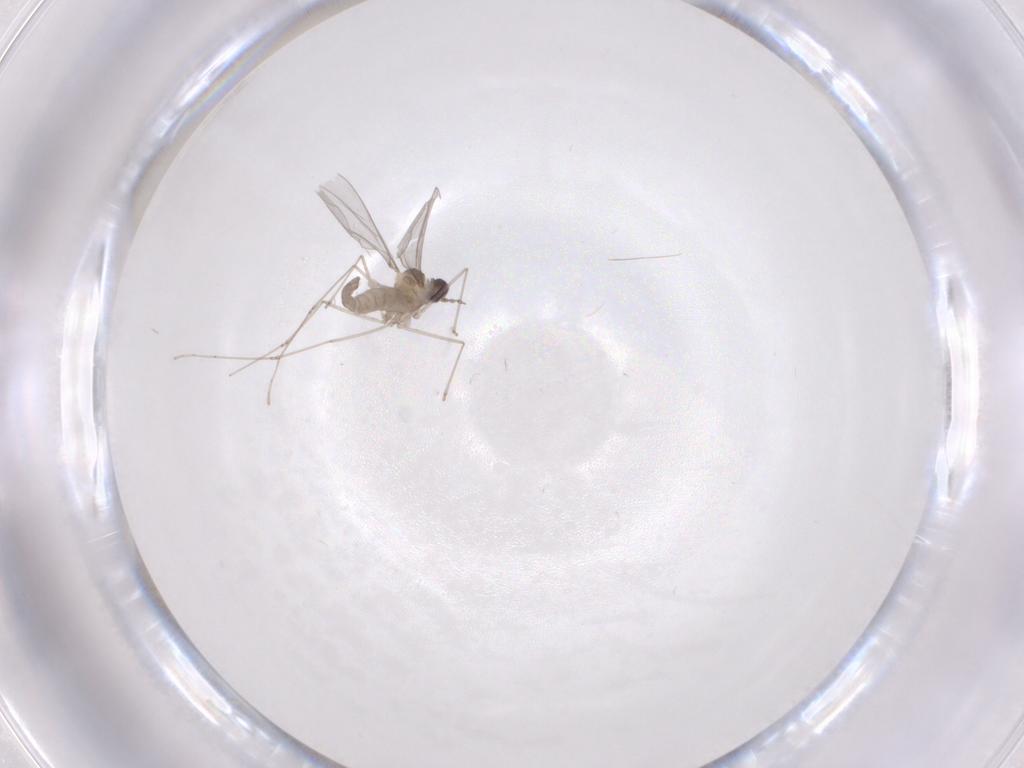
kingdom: Animalia
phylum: Arthropoda
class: Insecta
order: Diptera
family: Cecidomyiidae
